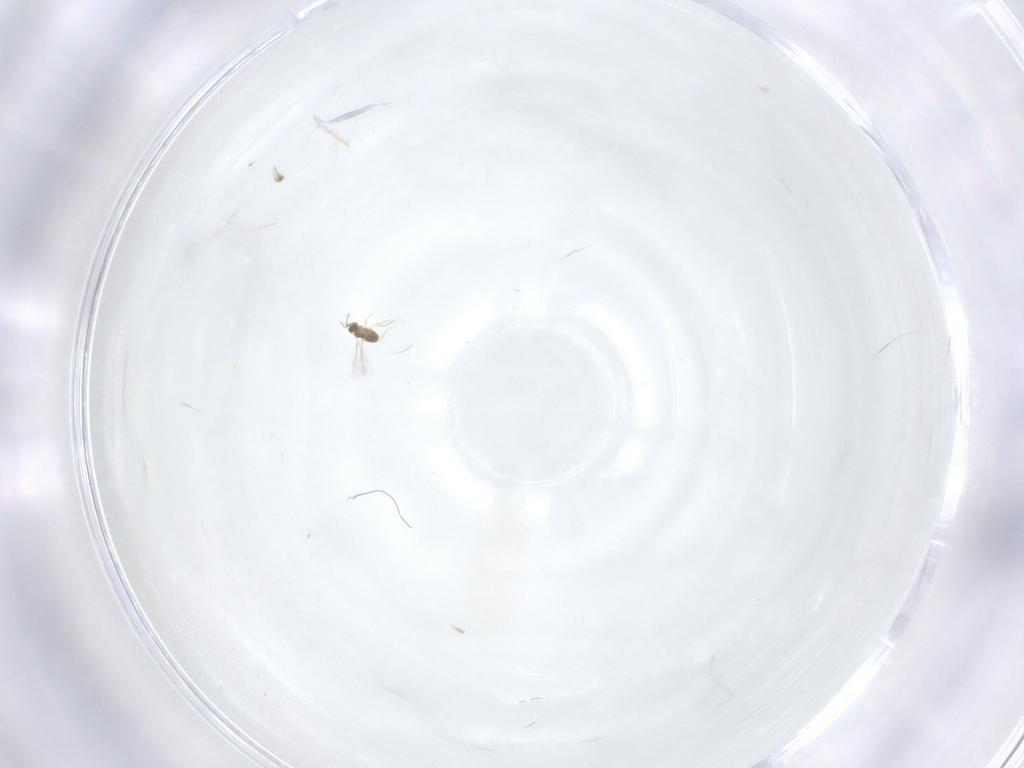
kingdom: Animalia
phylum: Arthropoda
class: Insecta
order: Hymenoptera
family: Mymaridae
